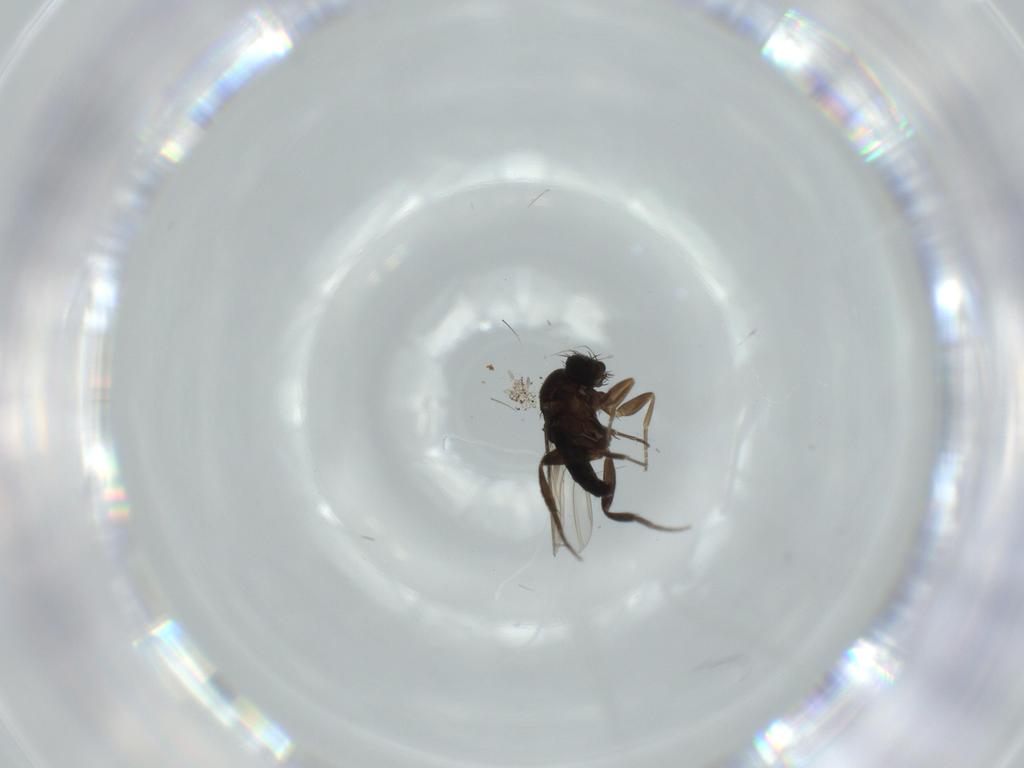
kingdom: Animalia
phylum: Arthropoda
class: Insecta
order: Diptera
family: Phoridae
